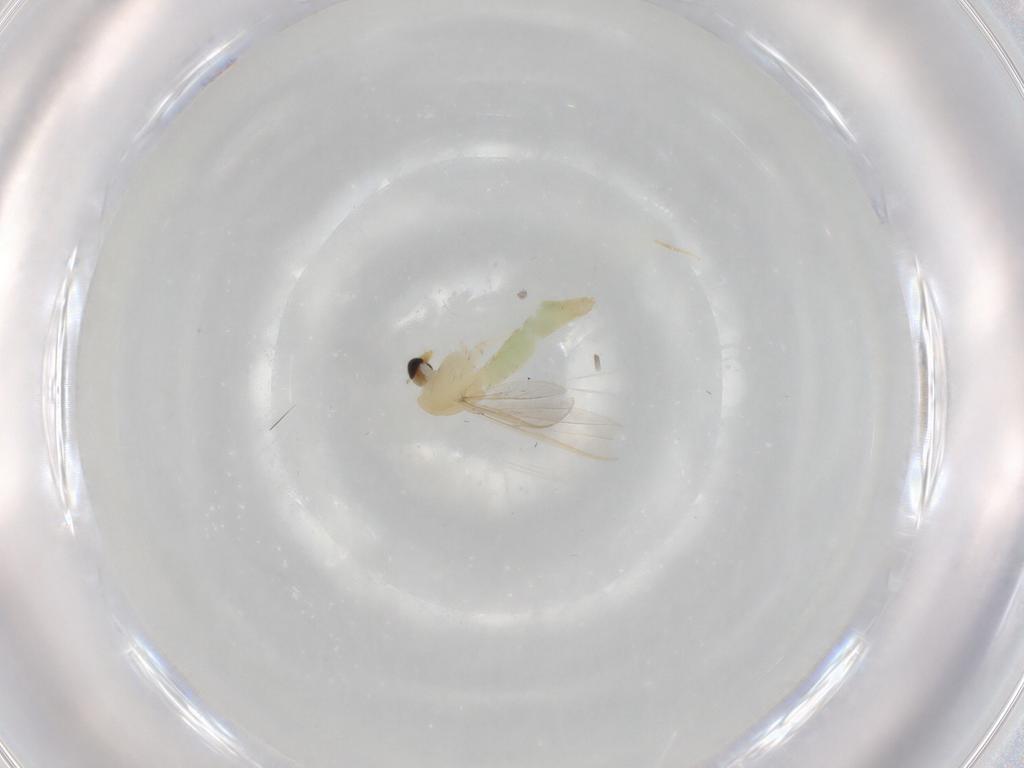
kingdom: Animalia
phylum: Arthropoda
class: Insecta
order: Diptera
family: Chironomidae
